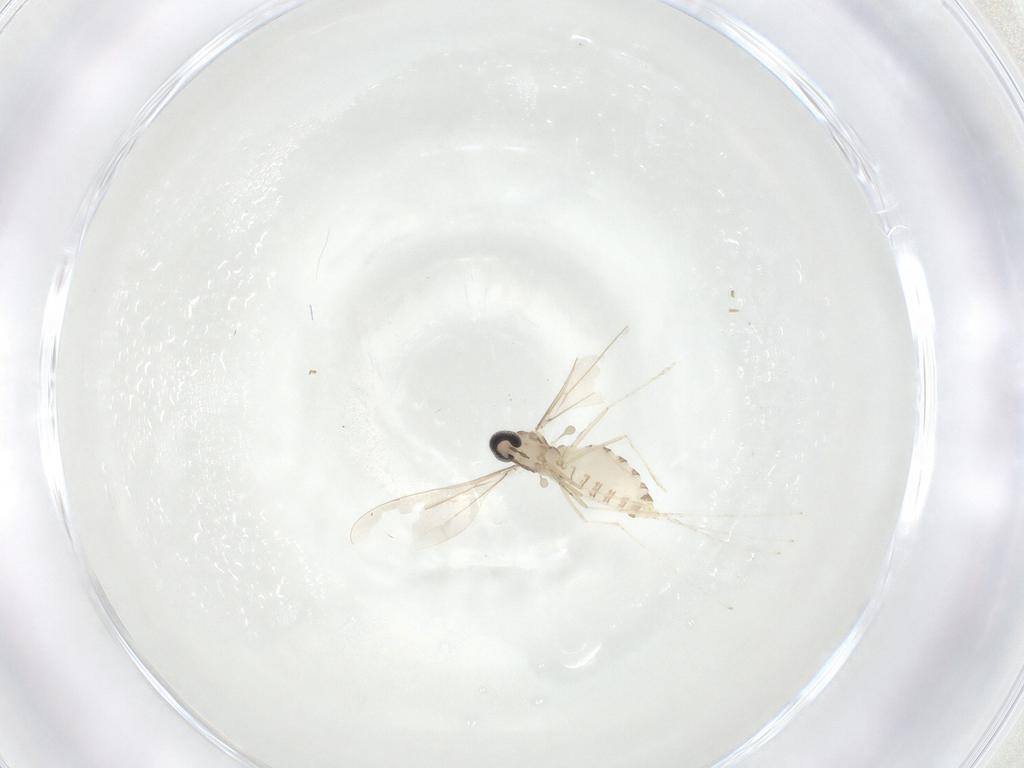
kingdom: Animalia
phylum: Arthropoda
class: Insecta
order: Diptera
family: Cecidomyiidae
